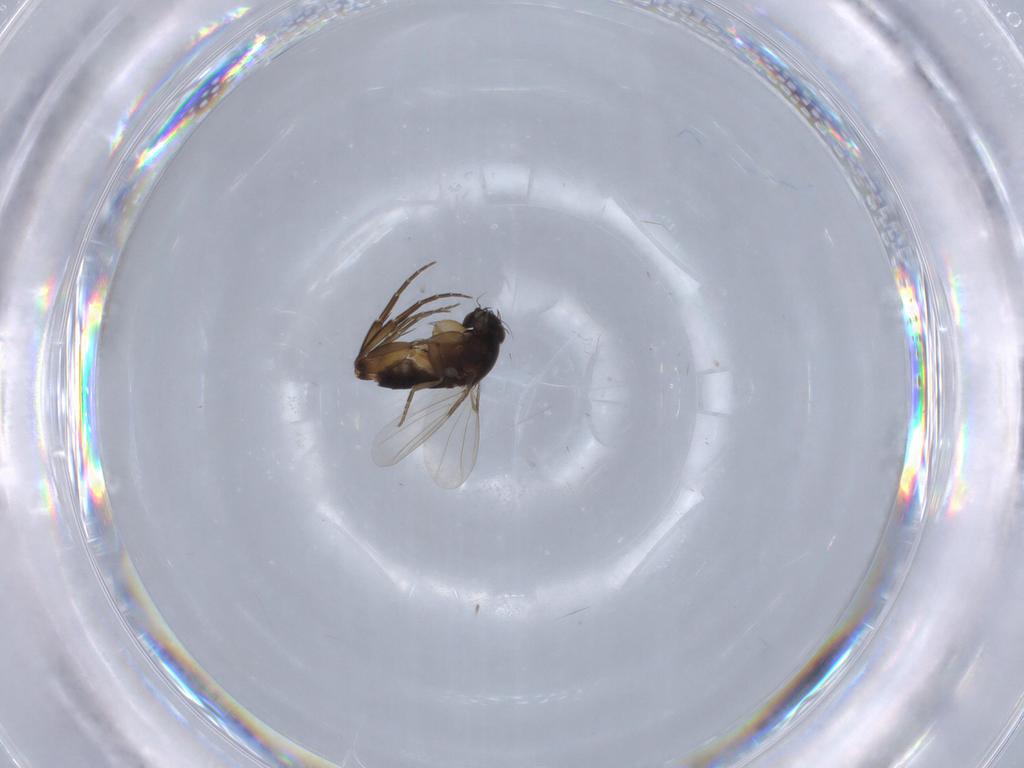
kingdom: Animalia
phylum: Arthropoda
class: Insecta
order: Diptera
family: Phoridae
